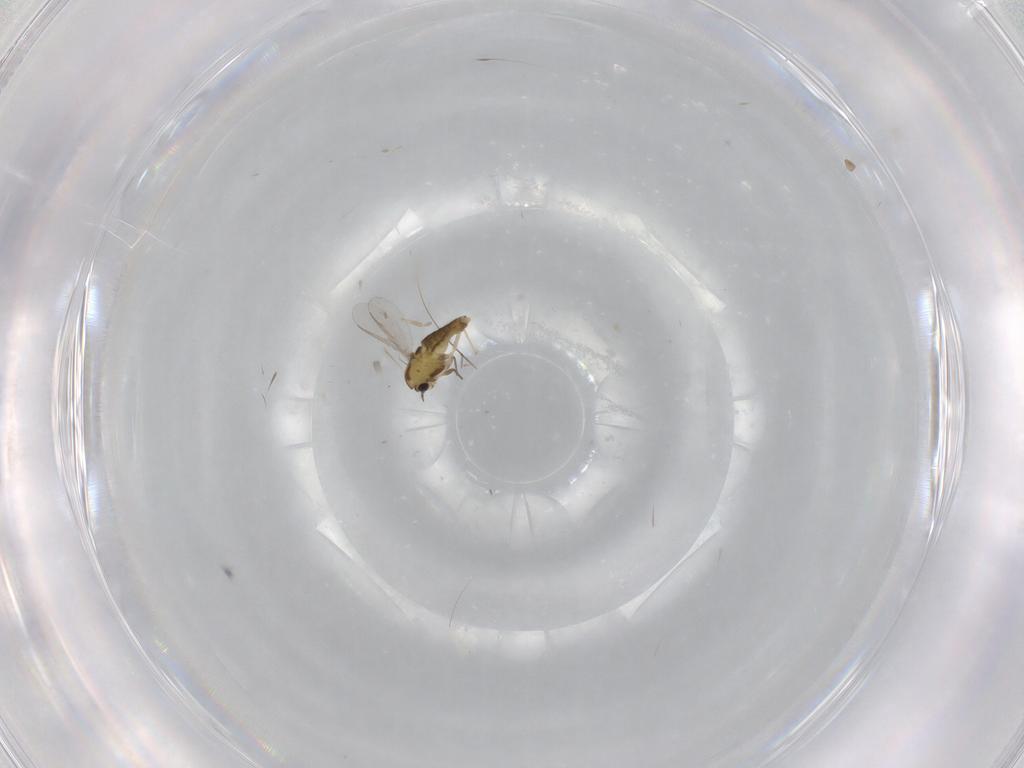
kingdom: Animalia
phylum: Arthropoda
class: Insecta
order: Diptera
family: Chironomidae
